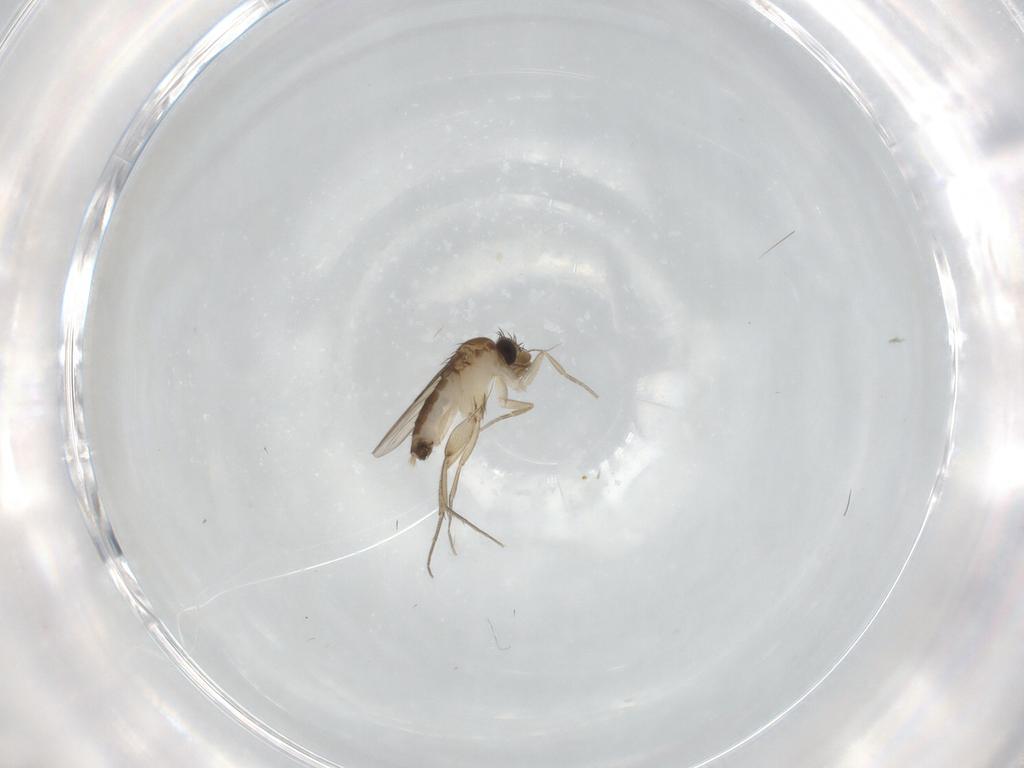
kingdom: Animalia
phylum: Arthropoda
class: Insecta
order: Diptera
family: Phoridae
